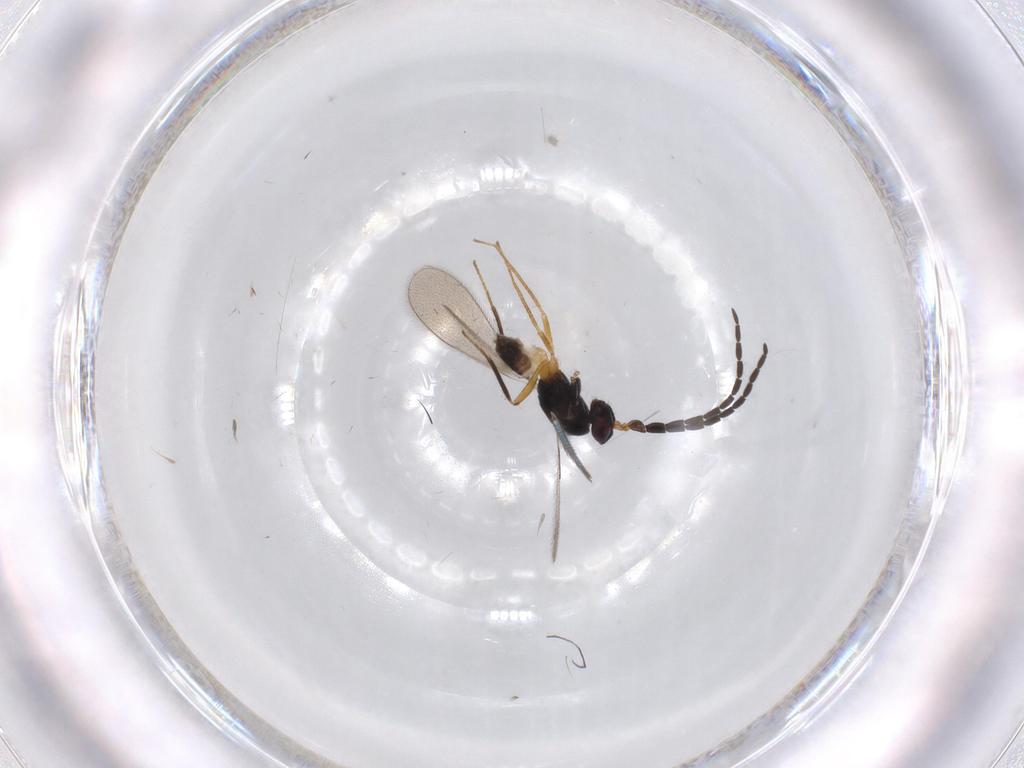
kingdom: Animalia
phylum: Arthropoda
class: Insecta
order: Hymenoptera
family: Mymaridae
